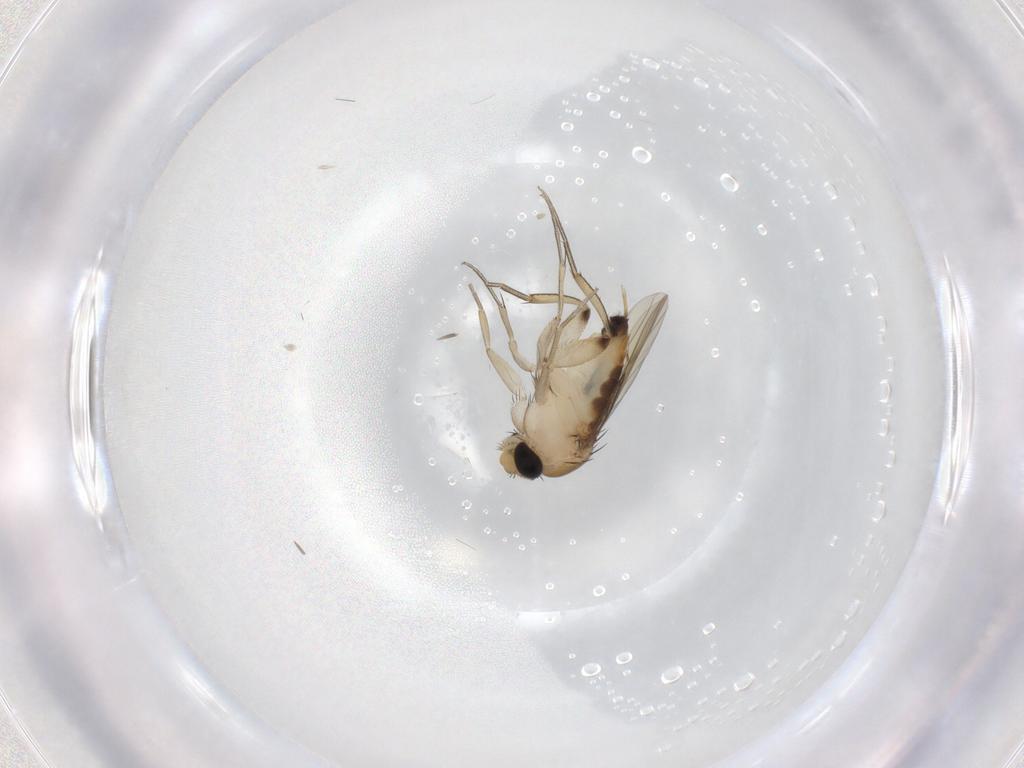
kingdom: Animalia
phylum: Arthropoda
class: Insecta
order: Diptera
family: Phoridae
